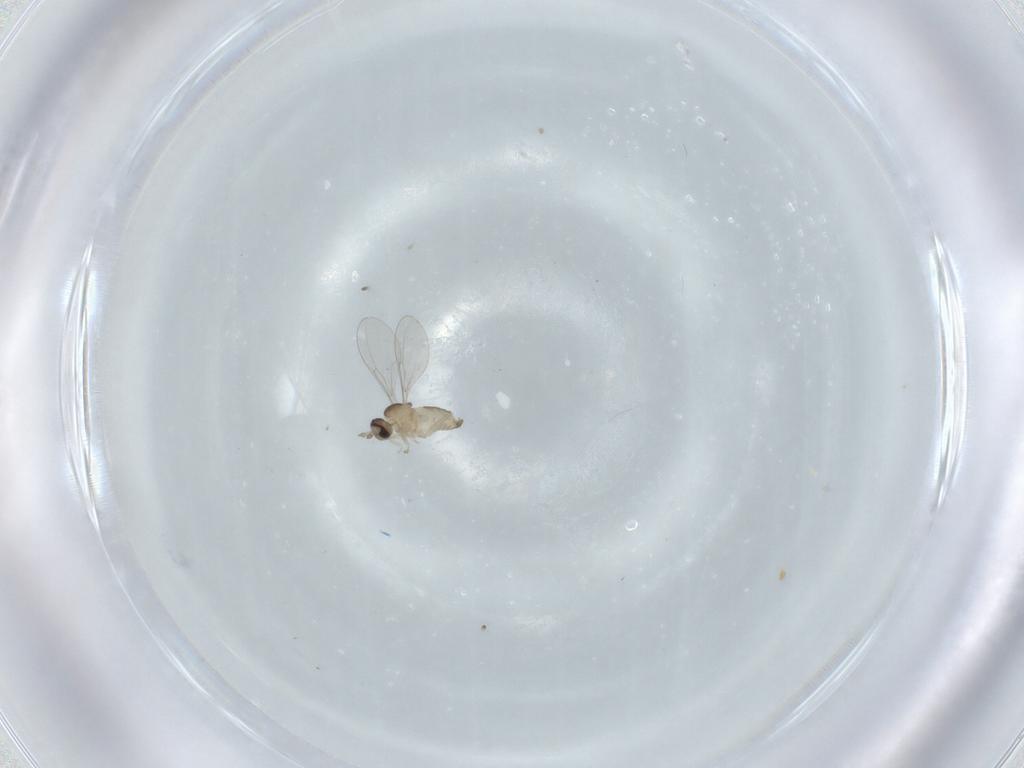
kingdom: Animalia
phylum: Arthropoda
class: Insecta
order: Diptera
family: Cecidomyiidae
